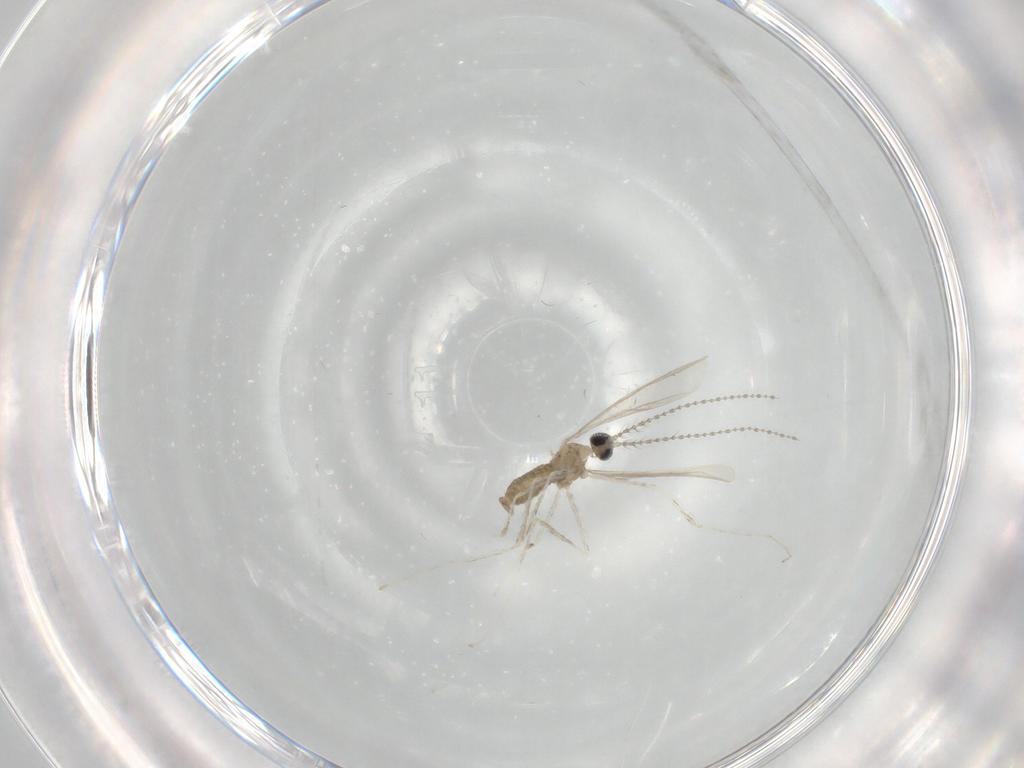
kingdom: Animalia
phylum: Arthropoda
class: Insecta
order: Diptera
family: Cecidomyiidae
